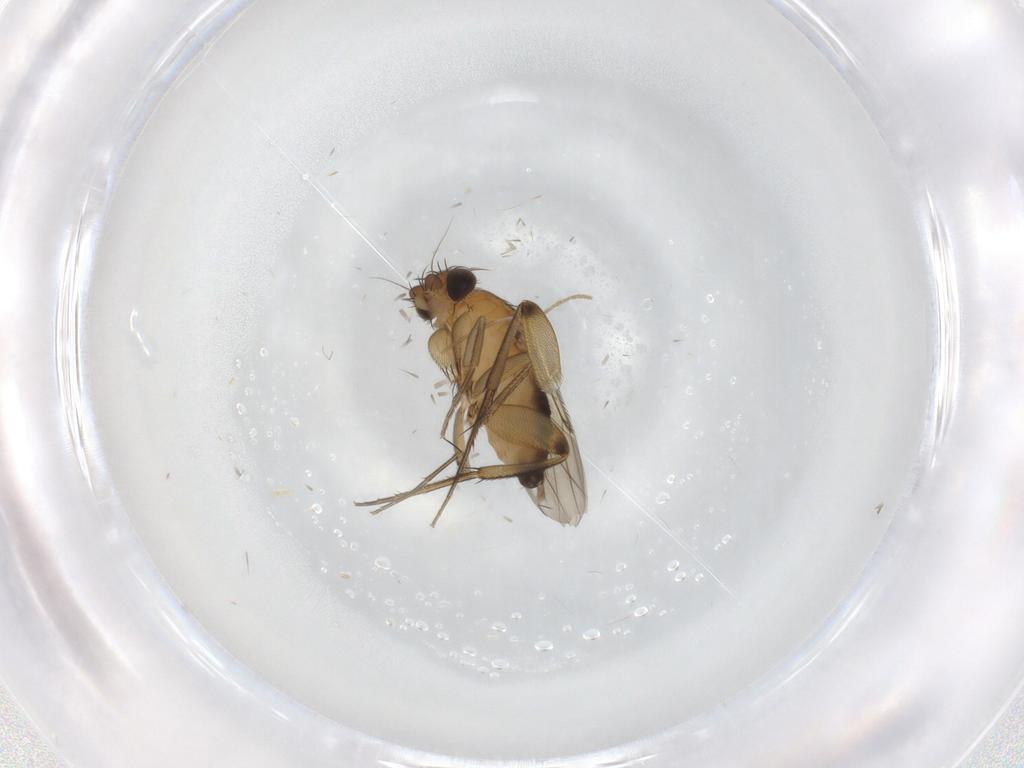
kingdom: Animalia
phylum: Arthropoda
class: Insecta
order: Diptera
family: Phoridae
